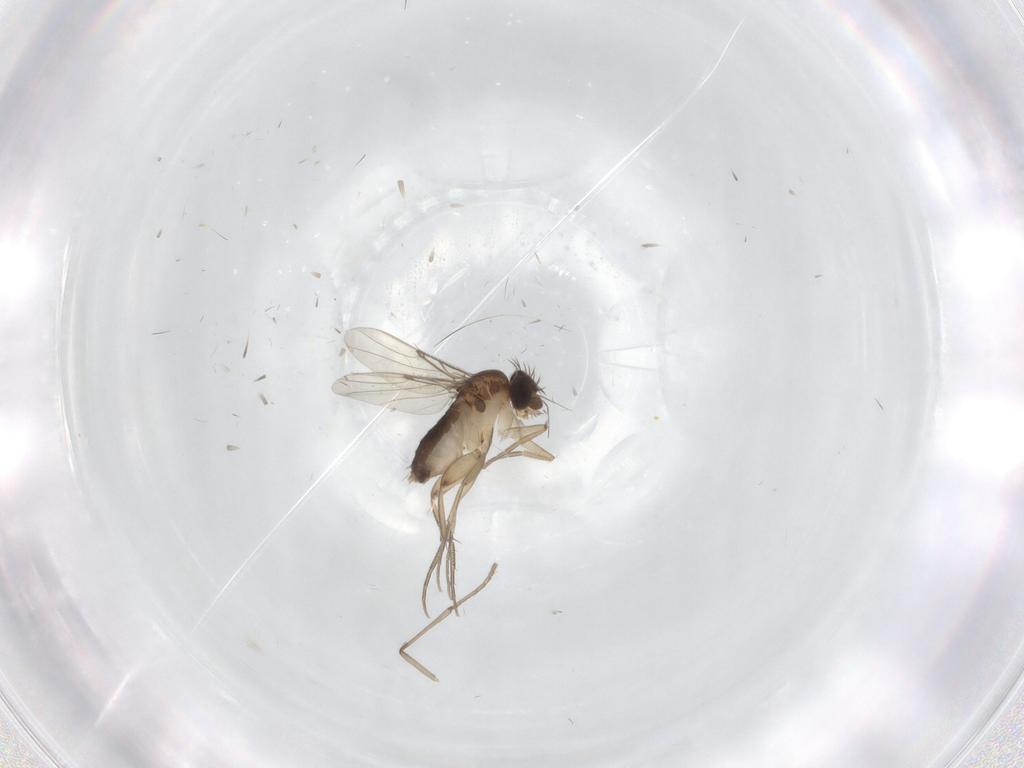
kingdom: Animalia
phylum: Arthropoda
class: Insecta
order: Diptera
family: Phoridae
